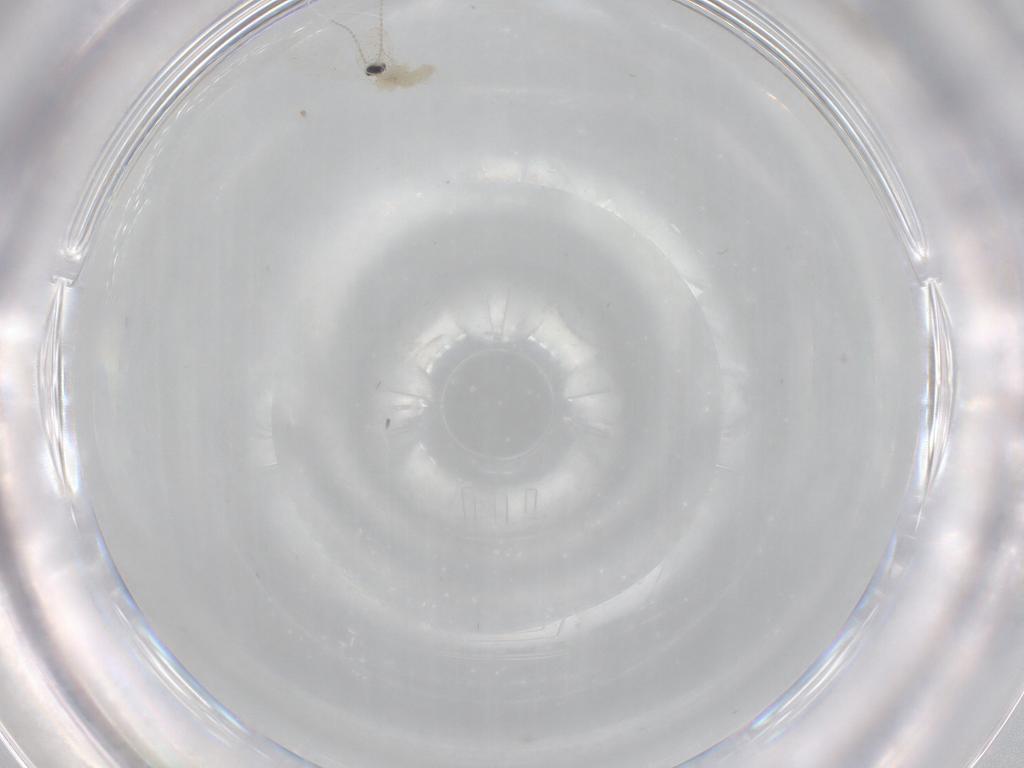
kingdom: Animalia
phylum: Arthropoda
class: Insecta
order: Diptera
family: Cecidomyiidae
